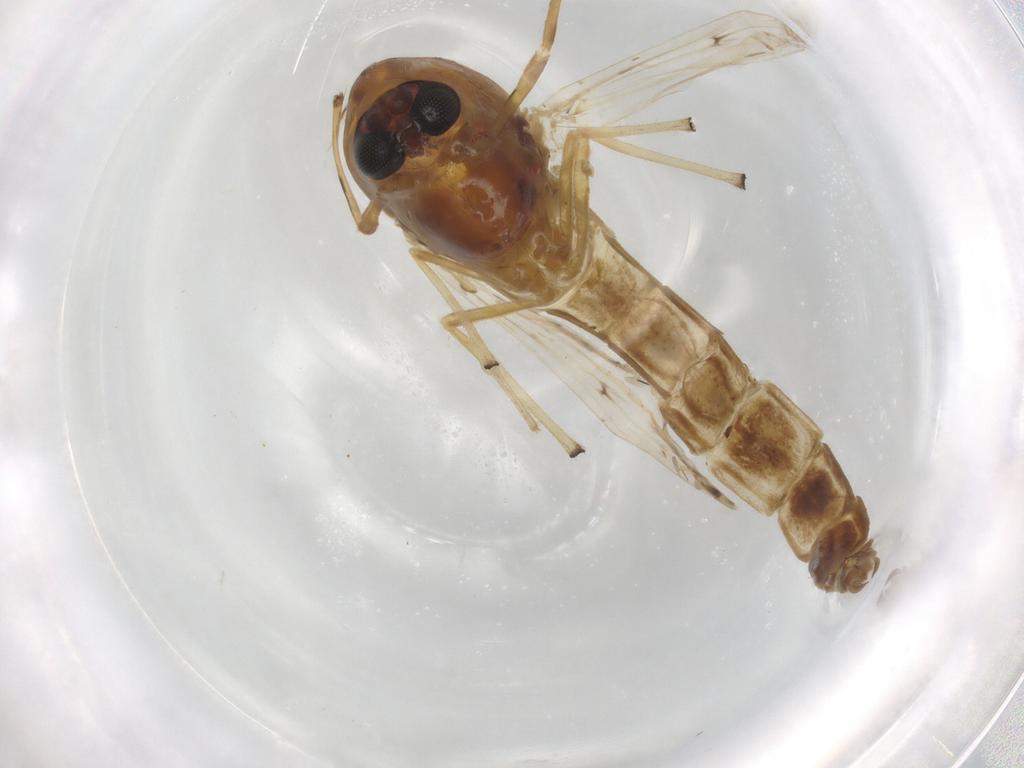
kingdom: Animalia
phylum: Arthropoda
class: Insecta
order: Diptera
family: Chironomidae
